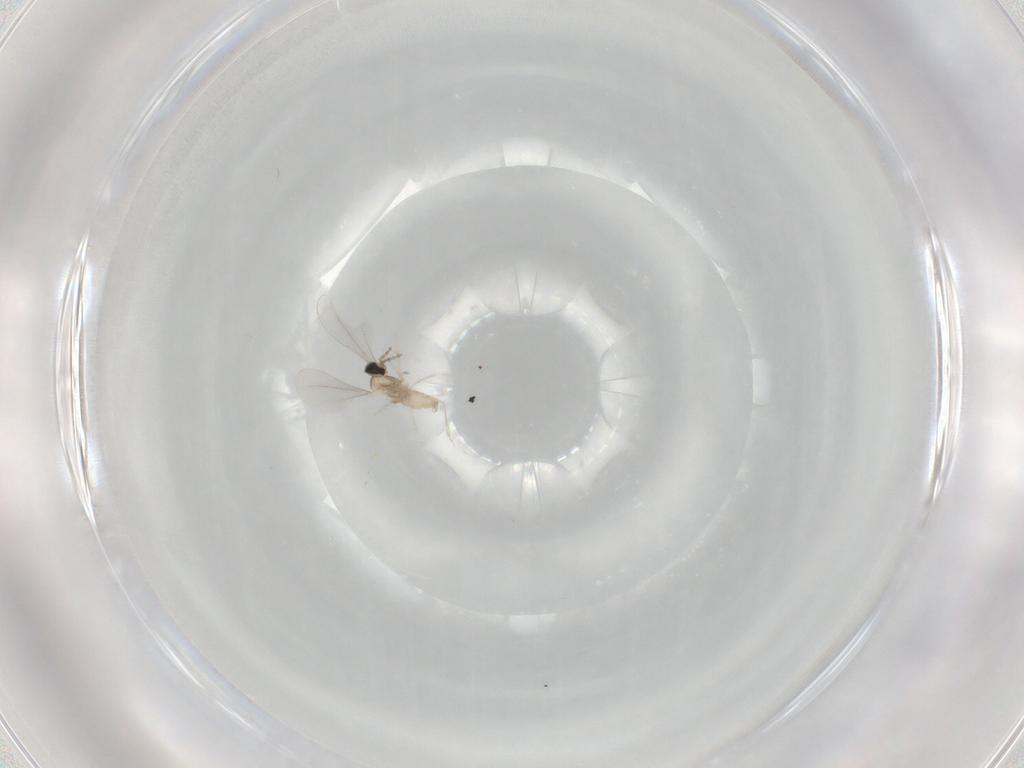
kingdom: Animalia
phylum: Arthropoda
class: Insecta
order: Diptera
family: Cecidomyiidae
